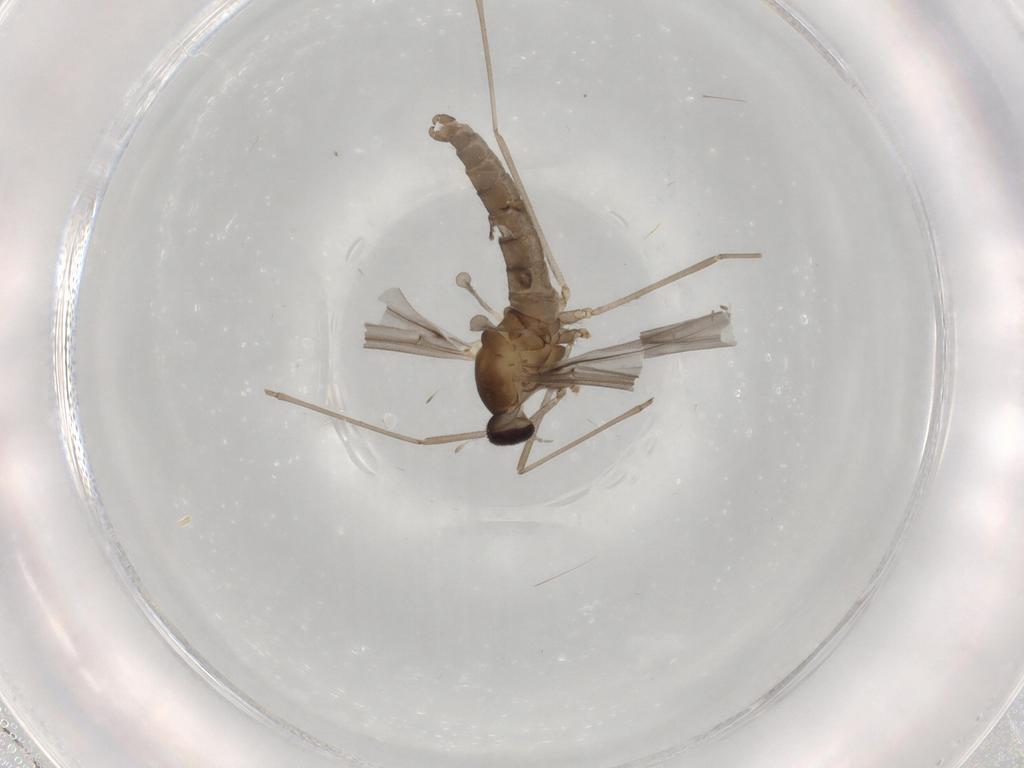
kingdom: Animalia
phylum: Arthropoda
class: Insecta
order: Diptera
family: Cecidomyiidae
